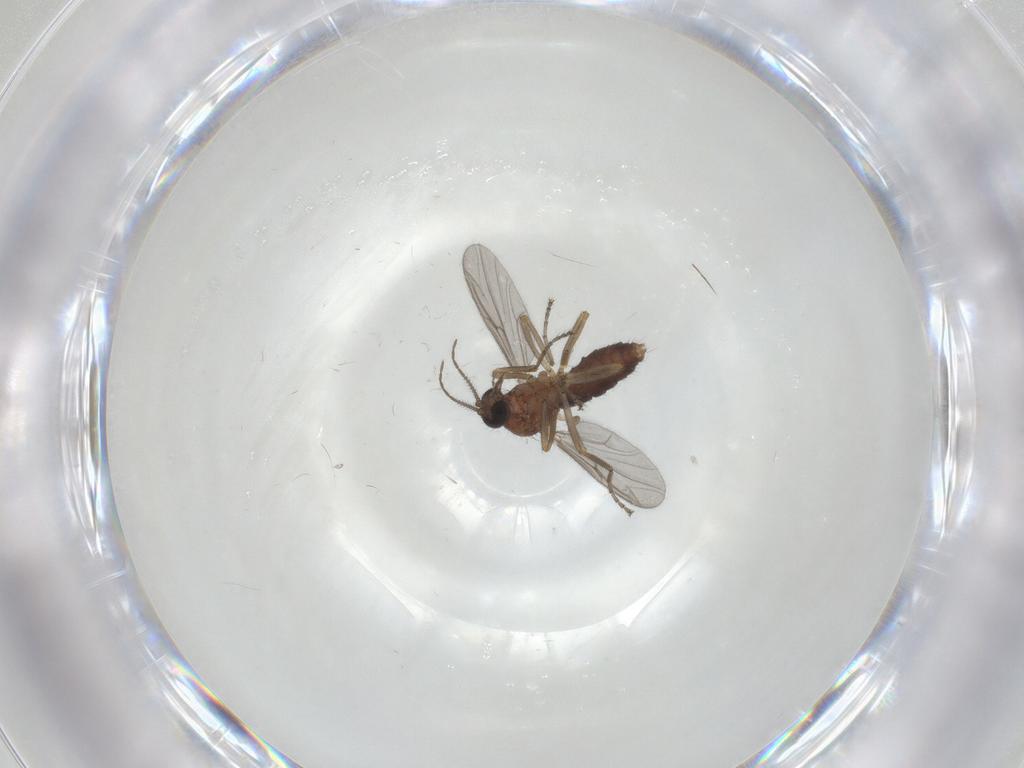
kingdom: Animalia
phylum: Arthropoda
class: Insecta
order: Diptera
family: Ceratopogonidae
